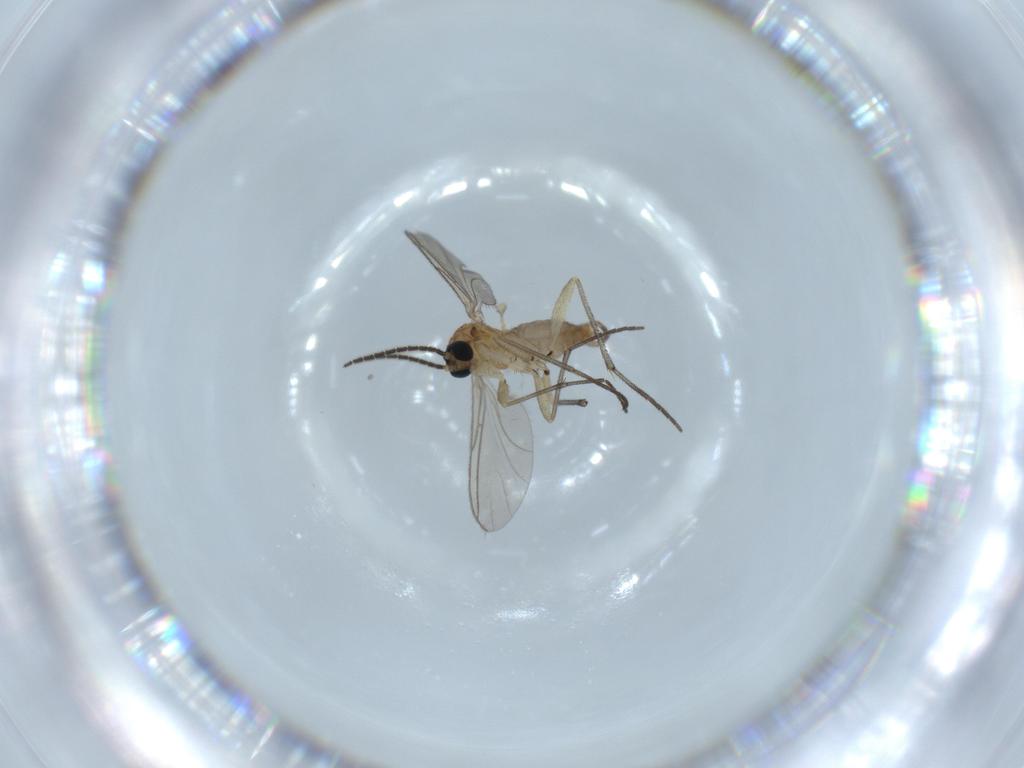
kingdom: Animalia
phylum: Arthropoda
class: Insecta
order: Diptera
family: Sciaridae
